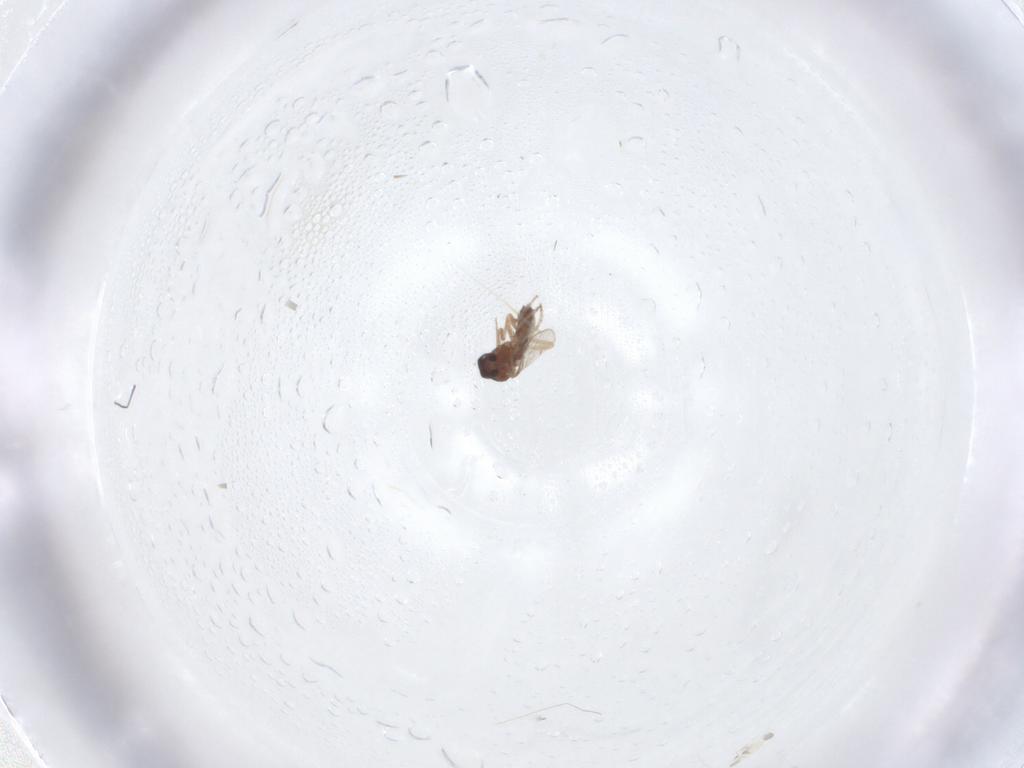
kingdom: Animalia
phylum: Arthropoda
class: Insecta
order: Diptera
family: Ceratopogonidae
